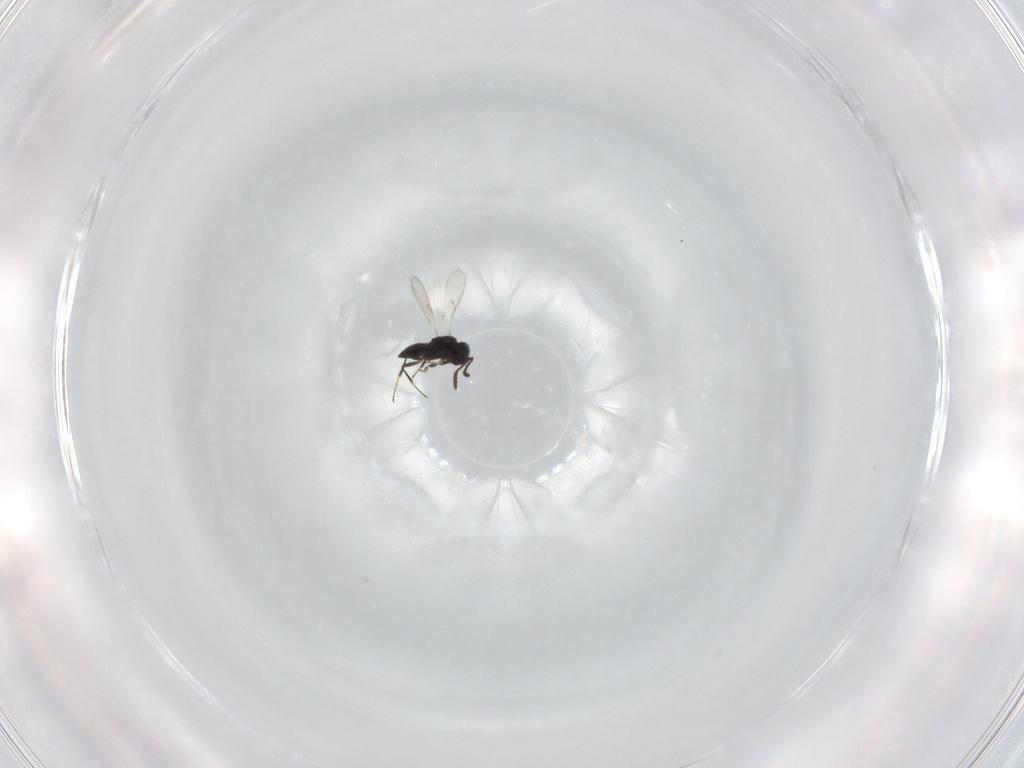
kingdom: Animalia
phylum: Arthropoda
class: Insecta
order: Hymenoptera
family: Scelionidae
